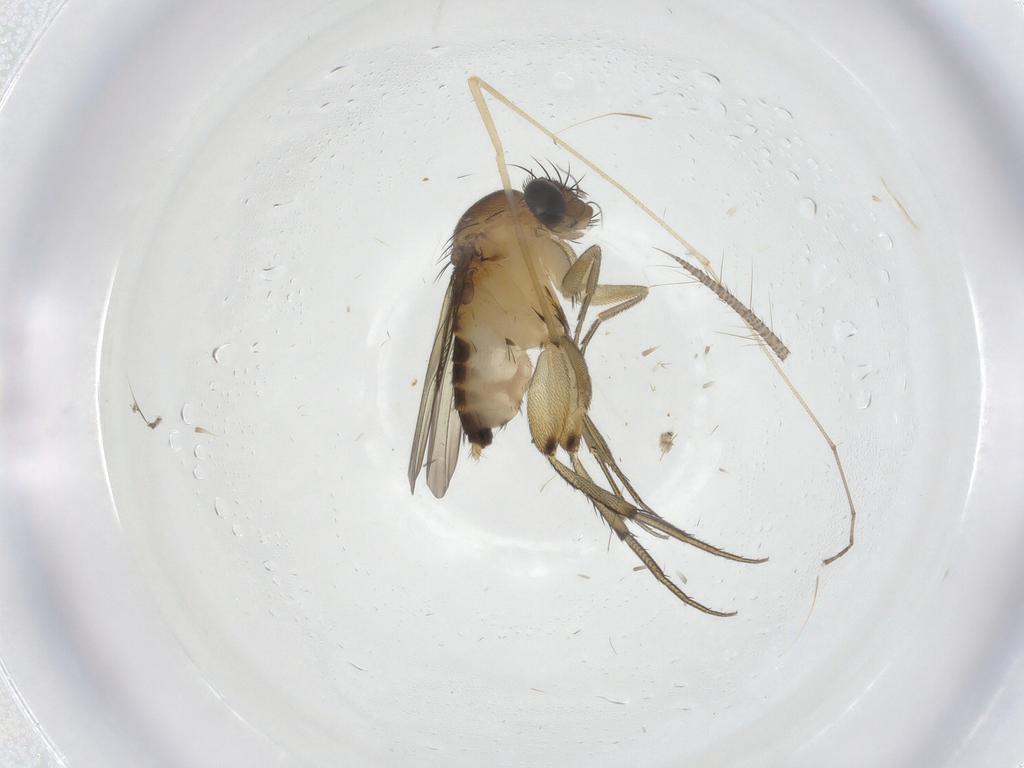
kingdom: Animalia
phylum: Arthropoda
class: Insecta
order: Diptera
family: Phoridae
